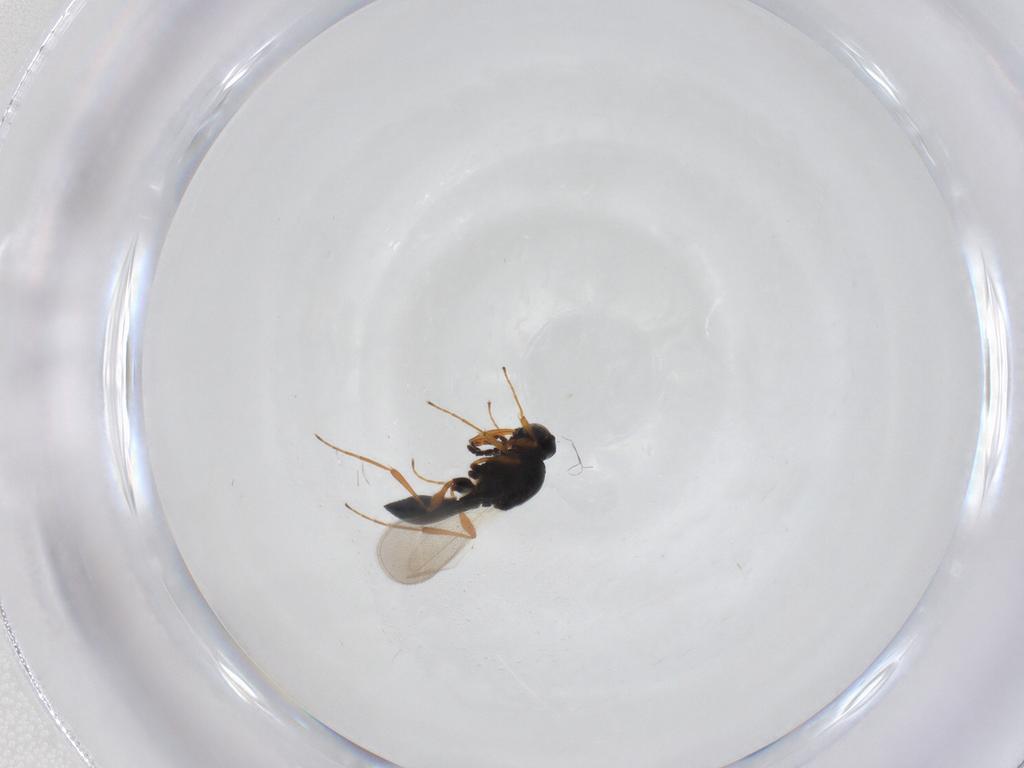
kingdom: Animalia
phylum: Arthropoda
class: Insecta
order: Hymenoptera
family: Platygastridae
